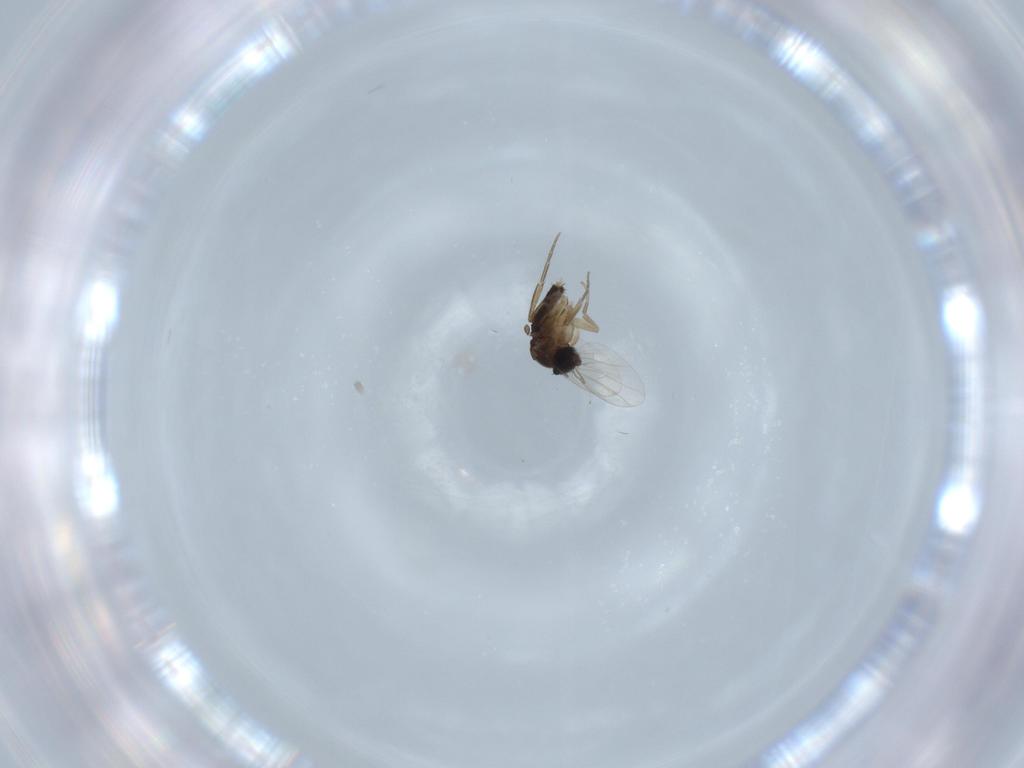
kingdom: Animalia
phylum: Arthropoda
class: Insecta
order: Diptera
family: Phoridae
